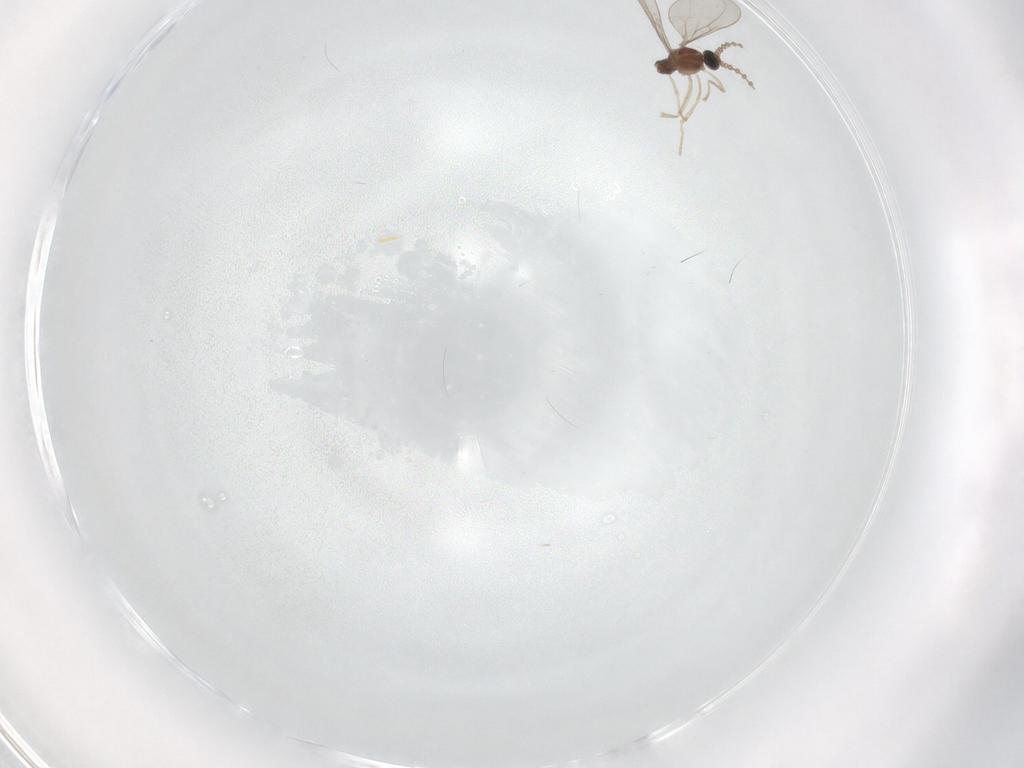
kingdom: Animalia
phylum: Arthropoda
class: Insecta
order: Diptera
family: Cecidomyiidae
